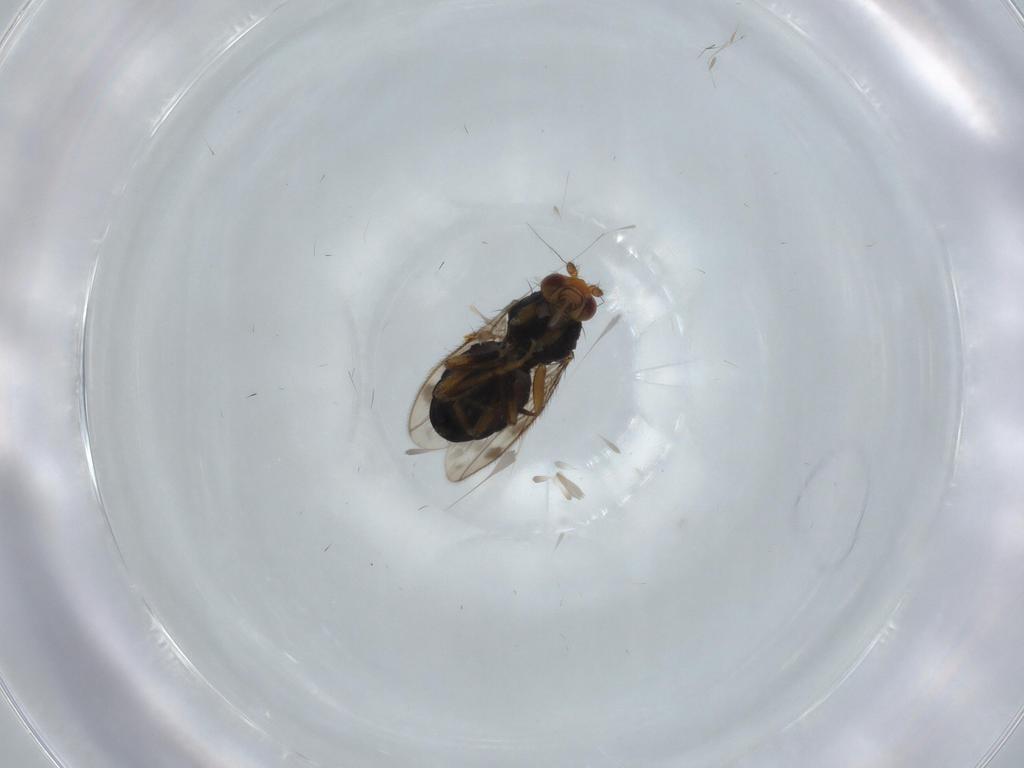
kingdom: Animalia
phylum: Arthropoda
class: Insecta
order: Diptera
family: Sphaeroceridae
